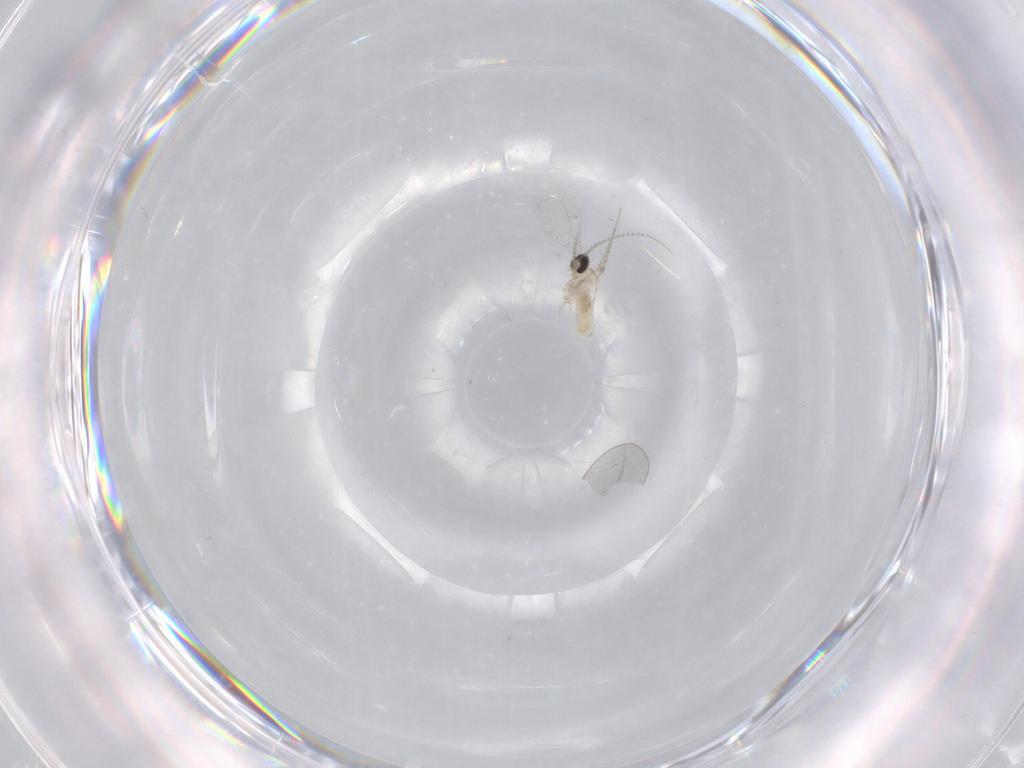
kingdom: Animalia
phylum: Arthropoda
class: Insecta
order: Diptera
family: Cecidomyiidae
